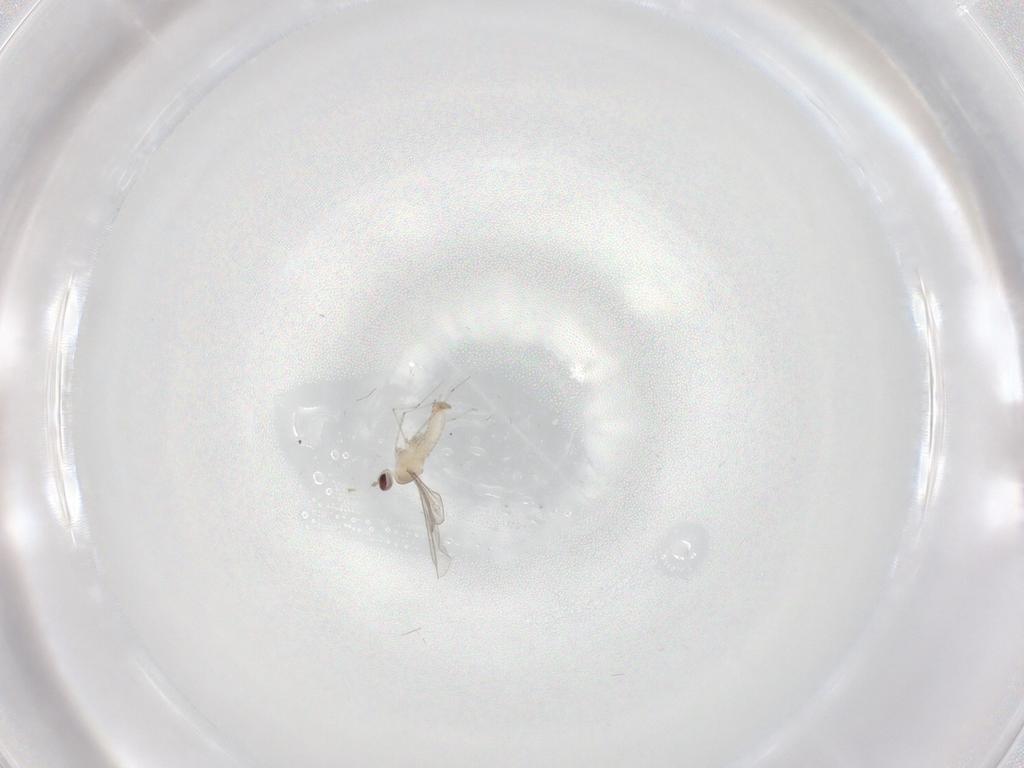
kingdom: Animalia
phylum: Arthropoda
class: Insecta
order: Diptera
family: Cecidomyiidae
